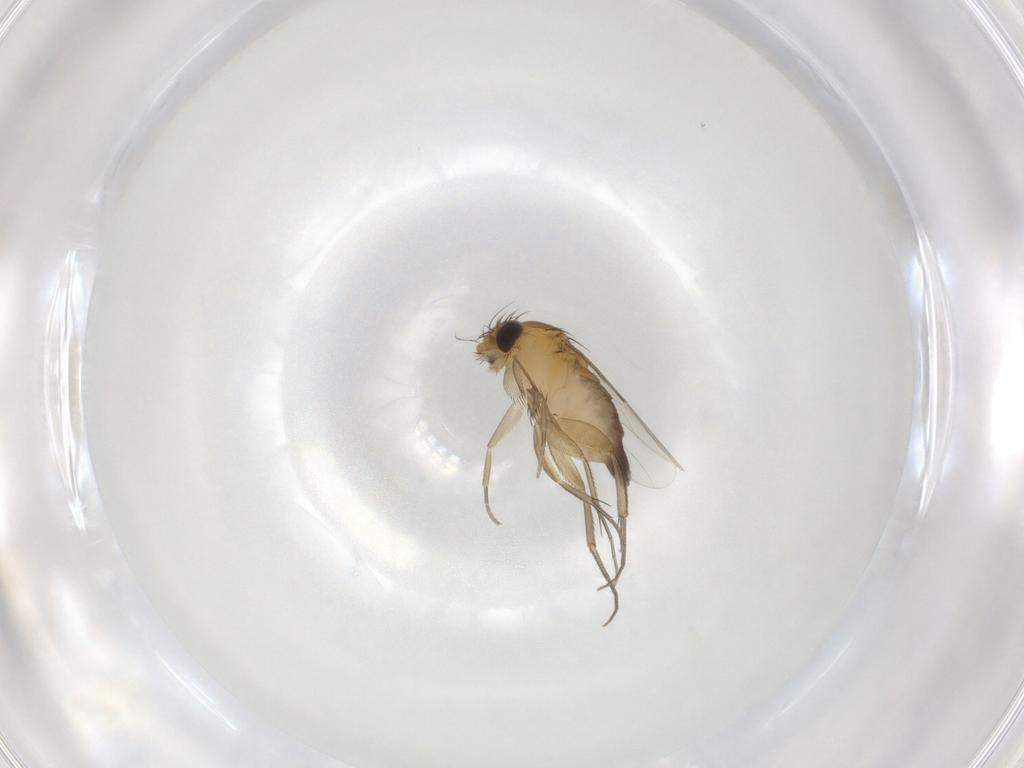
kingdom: Animalia
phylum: Arthropoda
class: Insecta
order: Diptera
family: Phoridae
